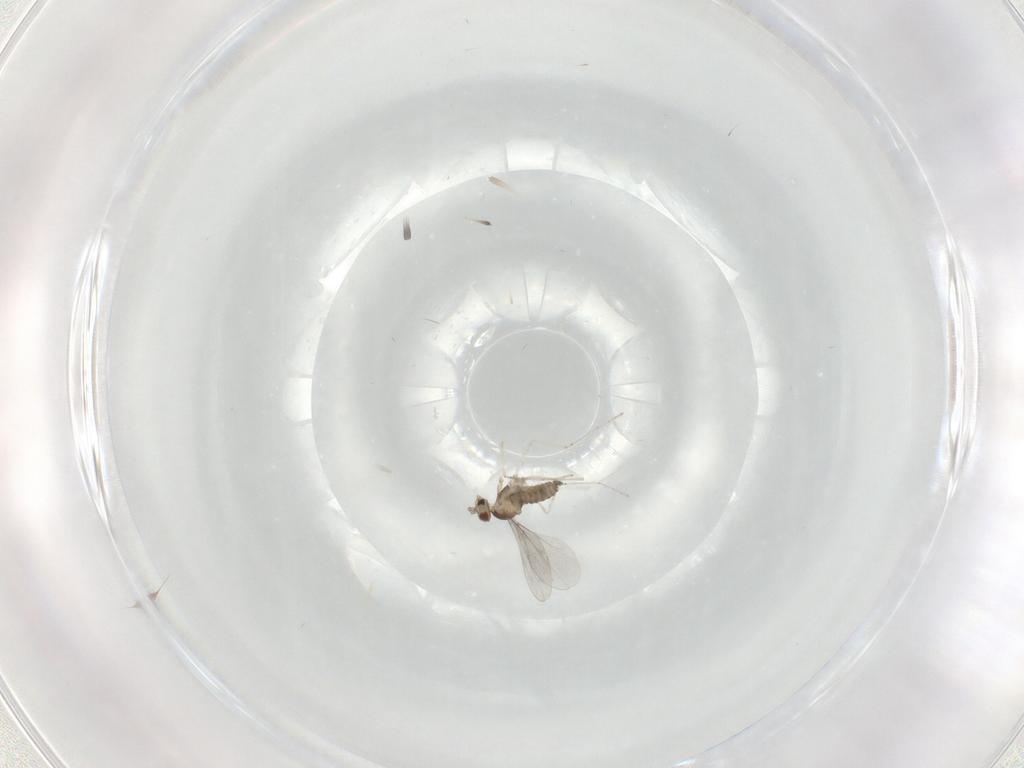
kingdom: Animalia
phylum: Arthropoda
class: Insecta
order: Diptera
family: Cecidomyiidae
